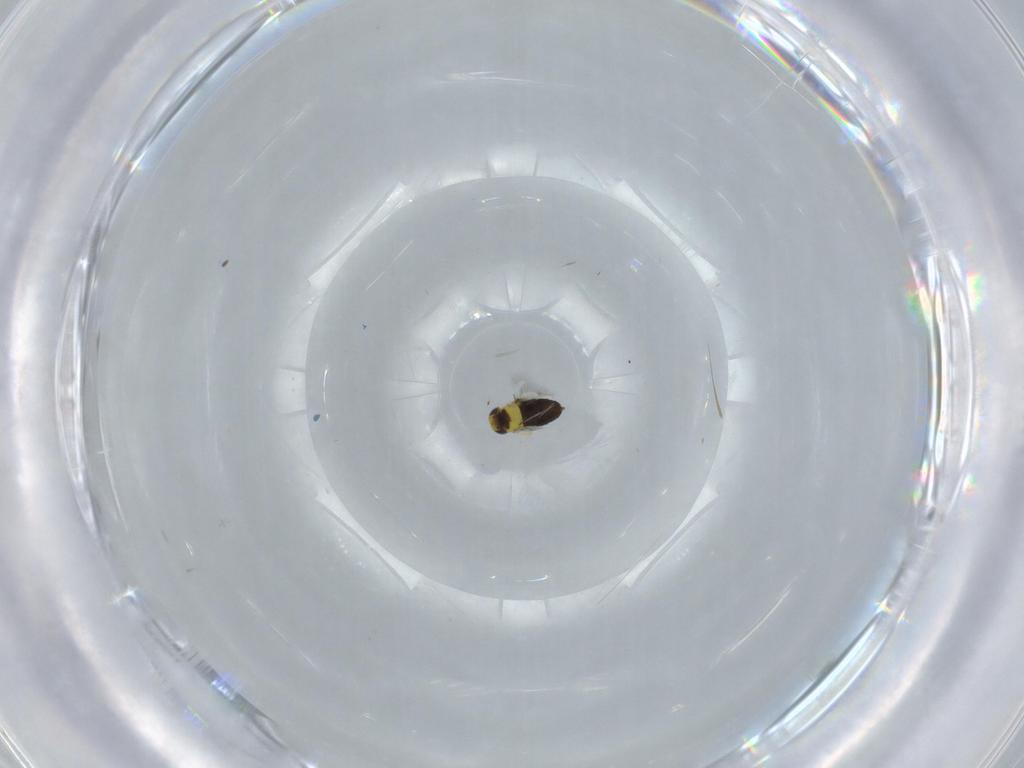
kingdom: Animalia
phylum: Arthropoda
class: Insecta
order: Hymenoptera
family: Signiphoridae
